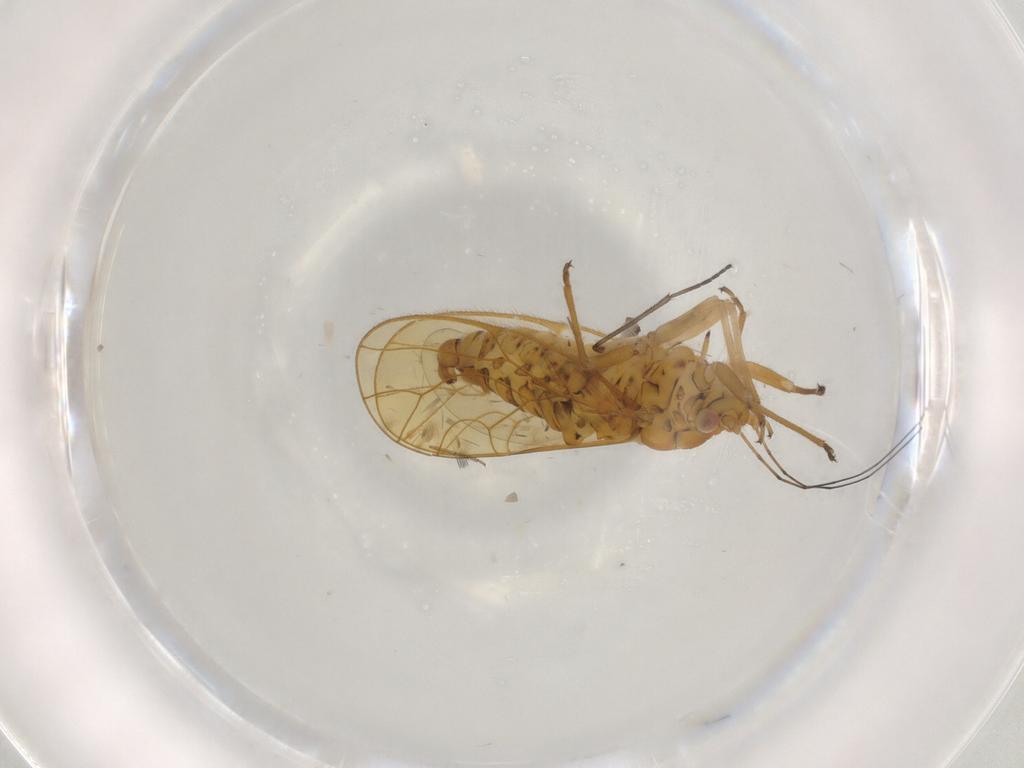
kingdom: Animalia
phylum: Arthropoda
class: Insecta
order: Hemiptera
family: Psyllidae
